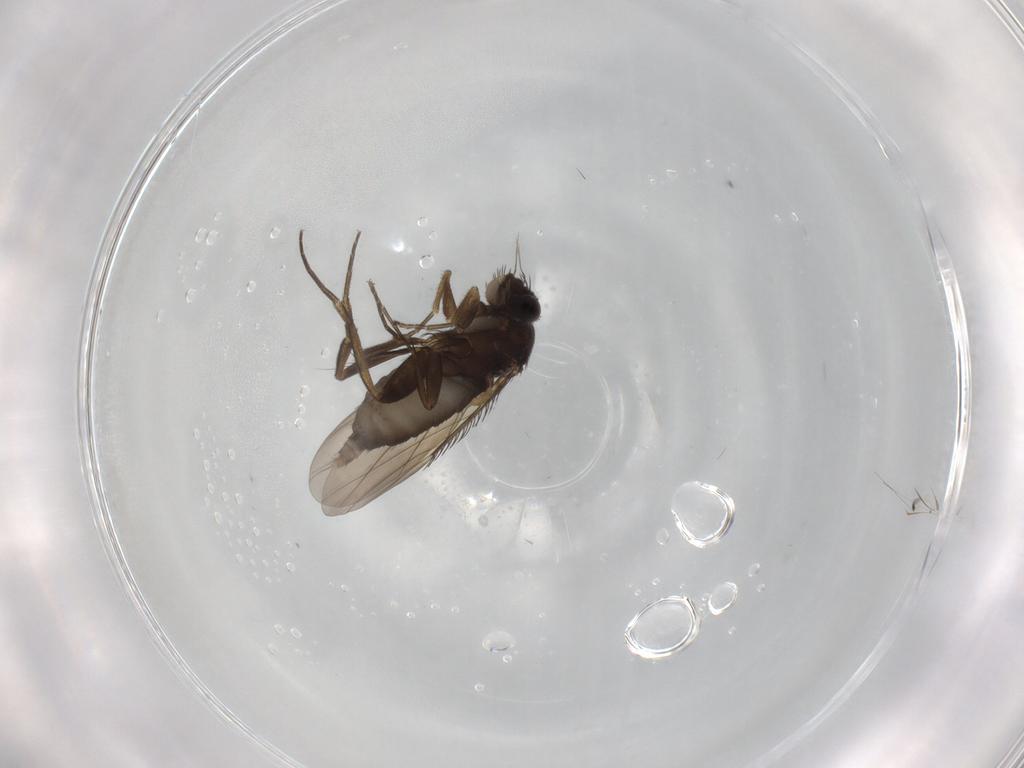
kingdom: Animalia
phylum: Arthropoda
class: Insecta
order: Diptera
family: Phoridae
